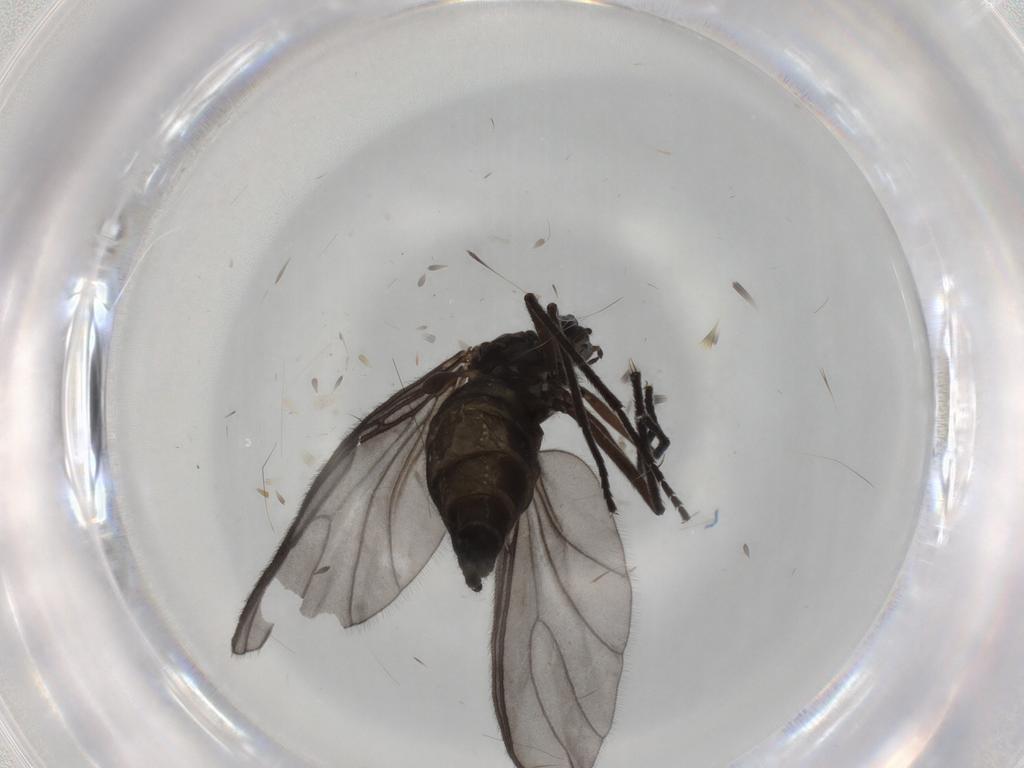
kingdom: Animalia
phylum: Arthropoda
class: Insecta
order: Diptera
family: Sciaridae
